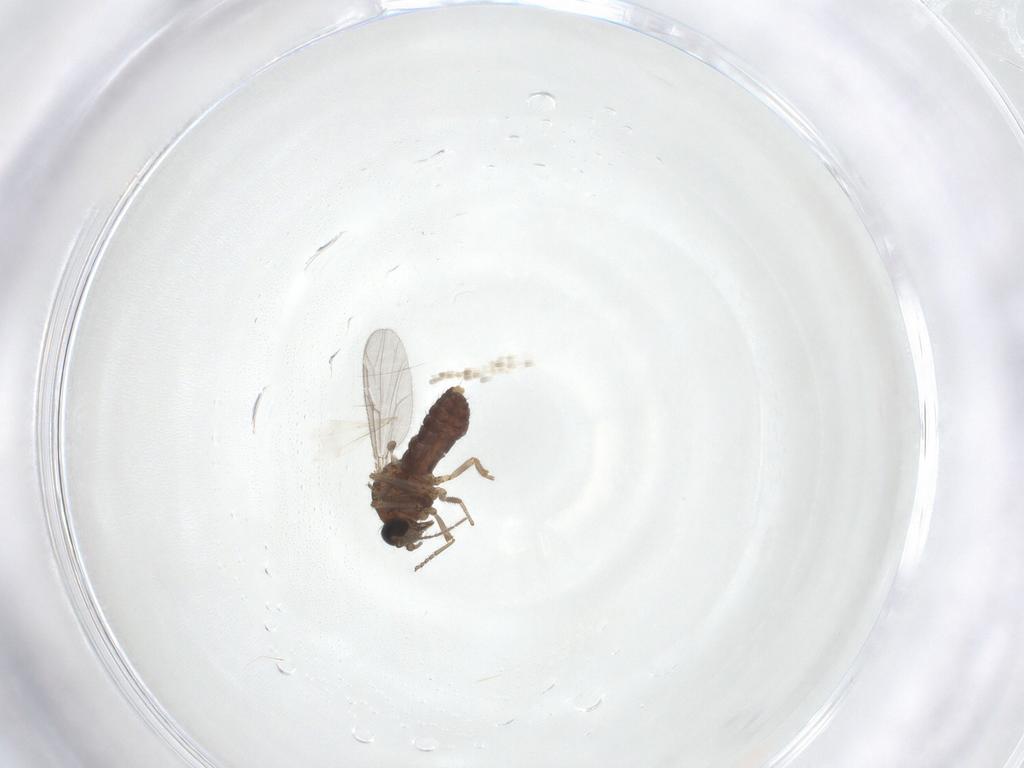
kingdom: Animalia
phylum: Arthropoda
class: Insecta
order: Diptera
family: Ceratopogonidae
